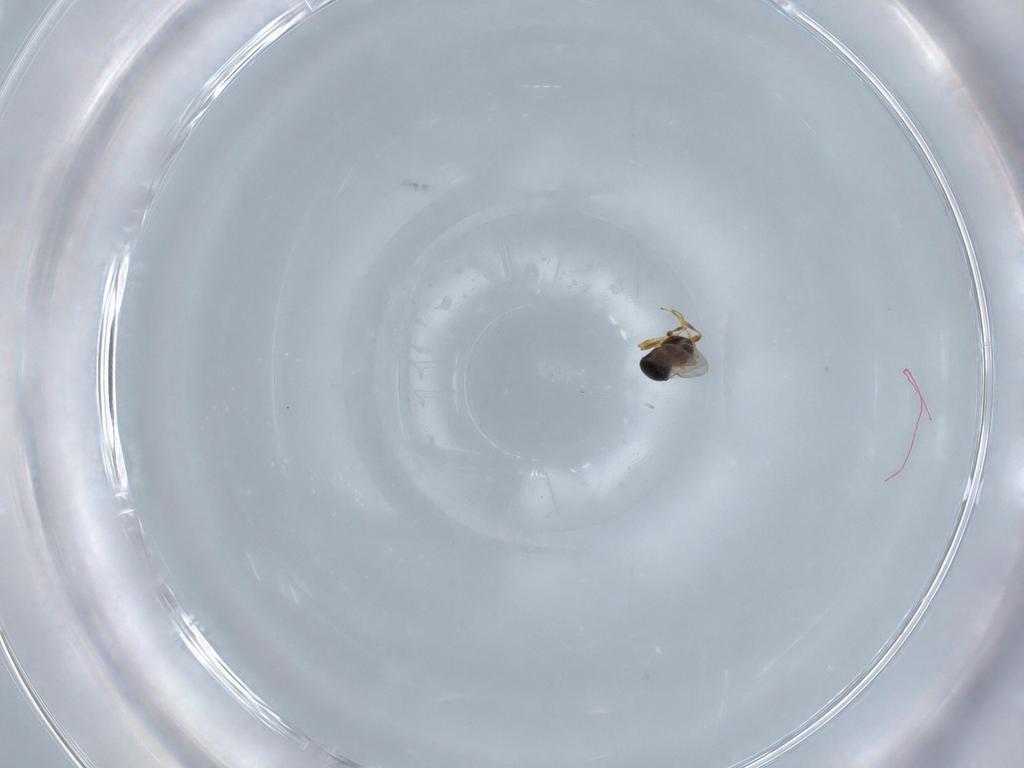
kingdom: Animalia
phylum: Arthropoda
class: Insecta
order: Hymenoptera
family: Platygastridae
